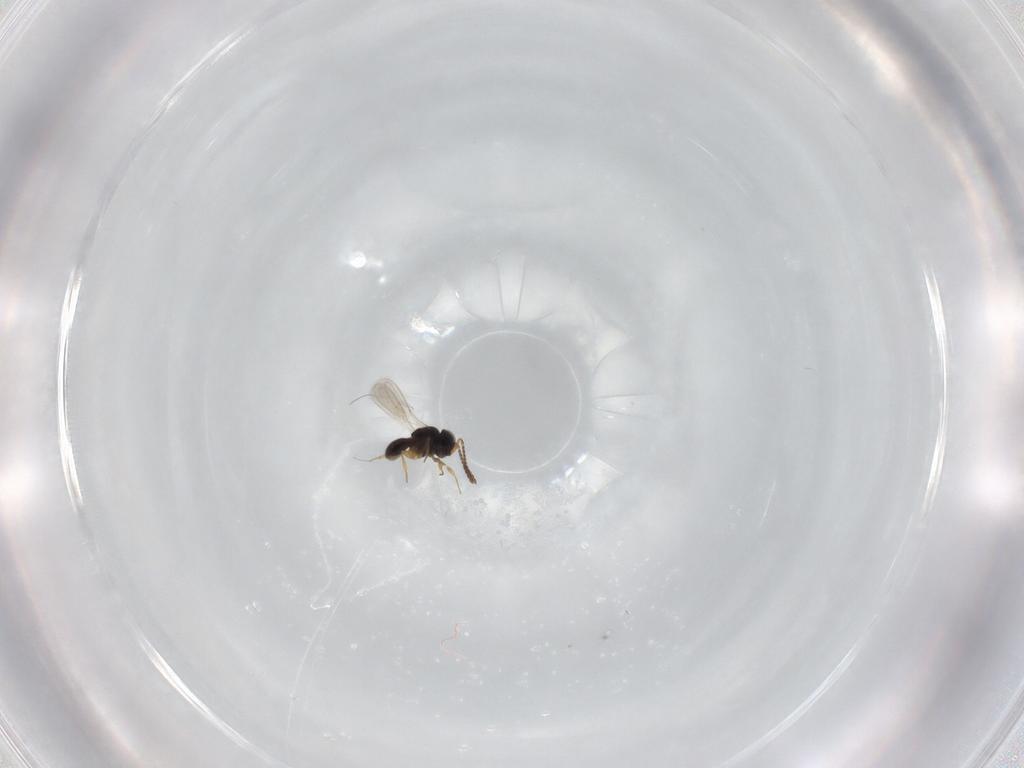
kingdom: Animalia
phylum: Arthropoda
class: Insecta
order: Hymenoptera
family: Scelionidae
